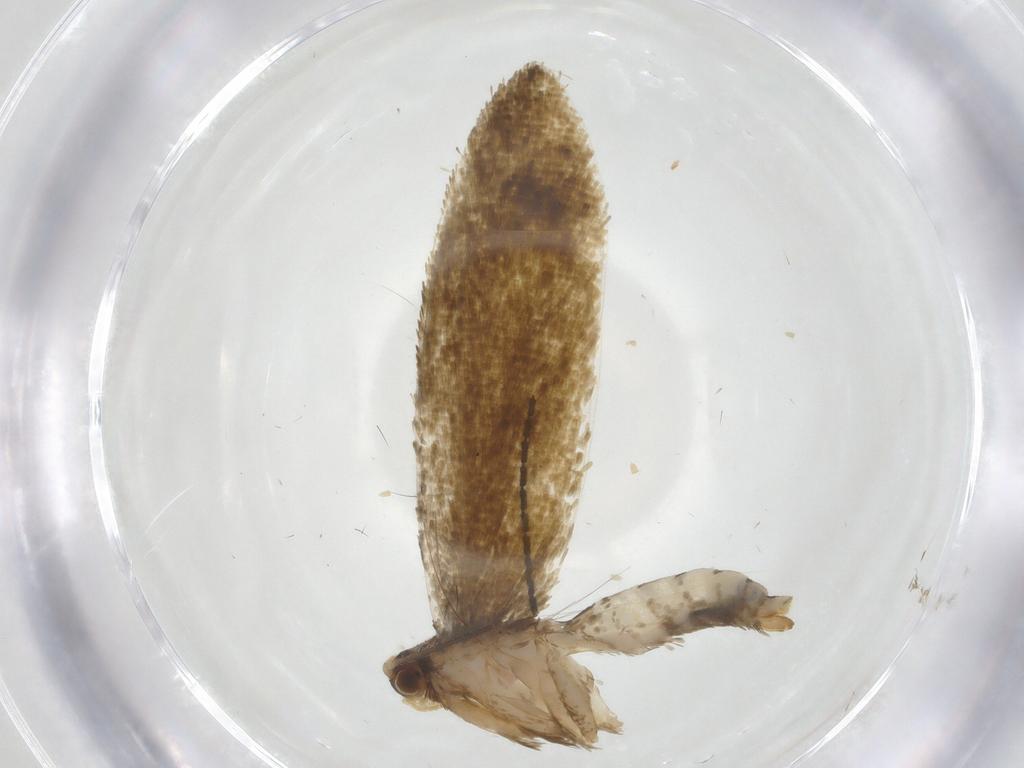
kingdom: Animalia
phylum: Arthropoda
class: Insecta
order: Lepidoptera
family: Tineidae
